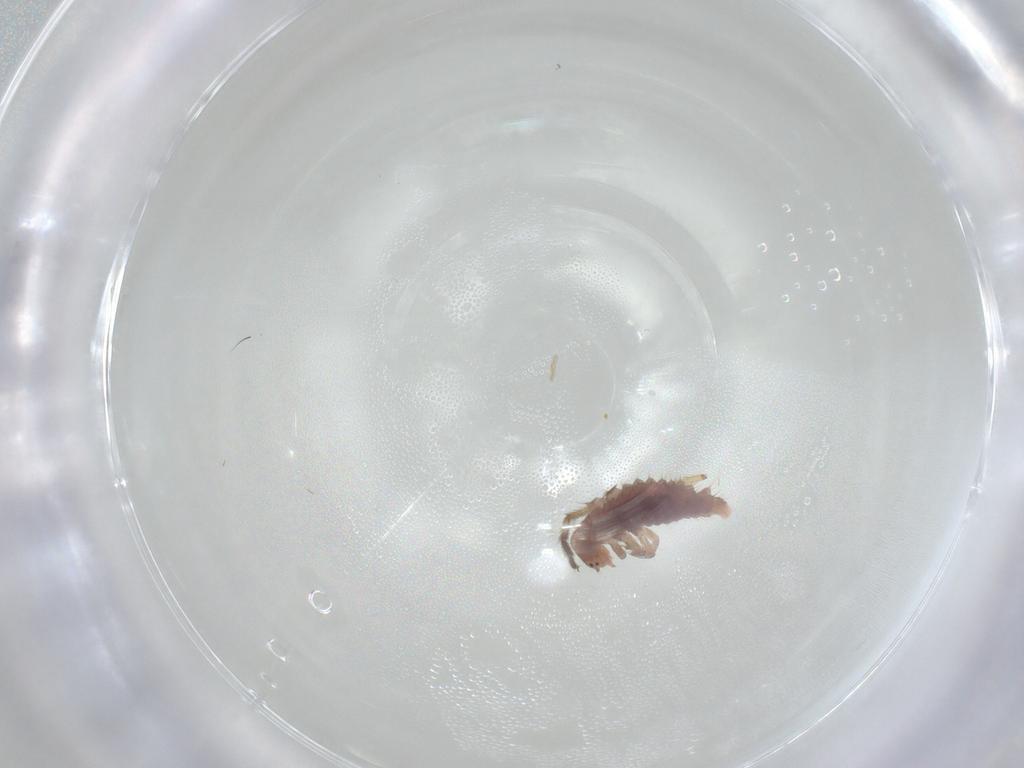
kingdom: Animalia
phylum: Arthropoda
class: Insecta
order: Coleoptera
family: Coccinellidae
